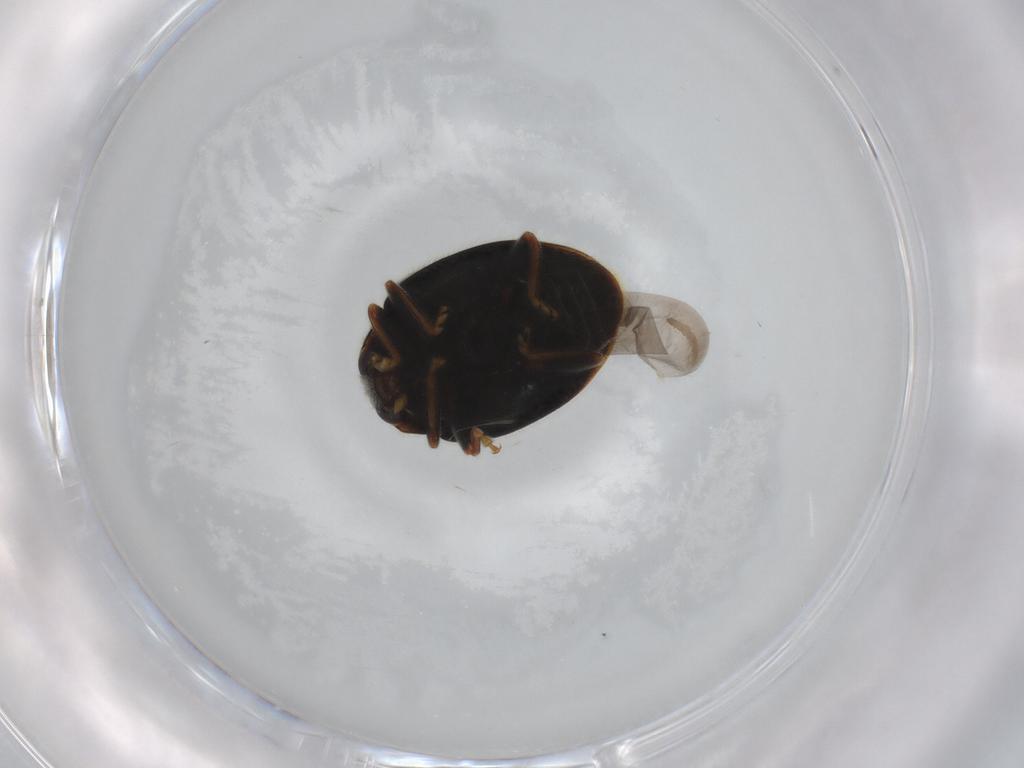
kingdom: Animalia
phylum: Arthropoda
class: Insecta
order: Coleoptera
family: Coccinellidae
